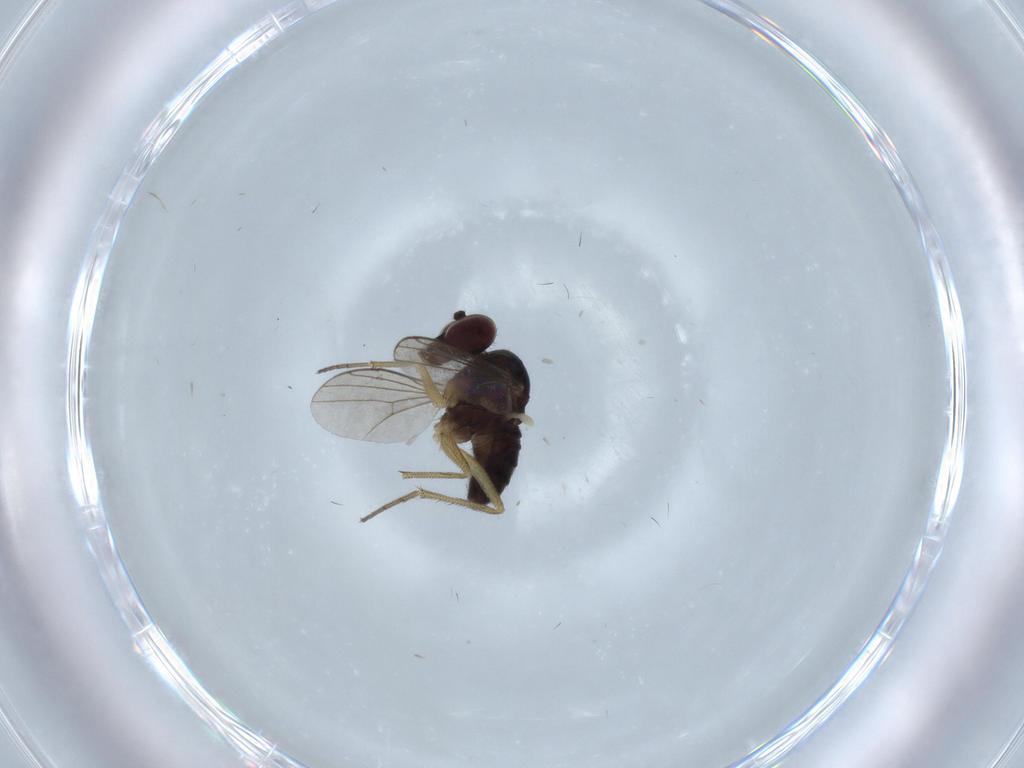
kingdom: Animalia
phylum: Arthropoda
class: Insecta
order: Diptera
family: Dolichopodidae
